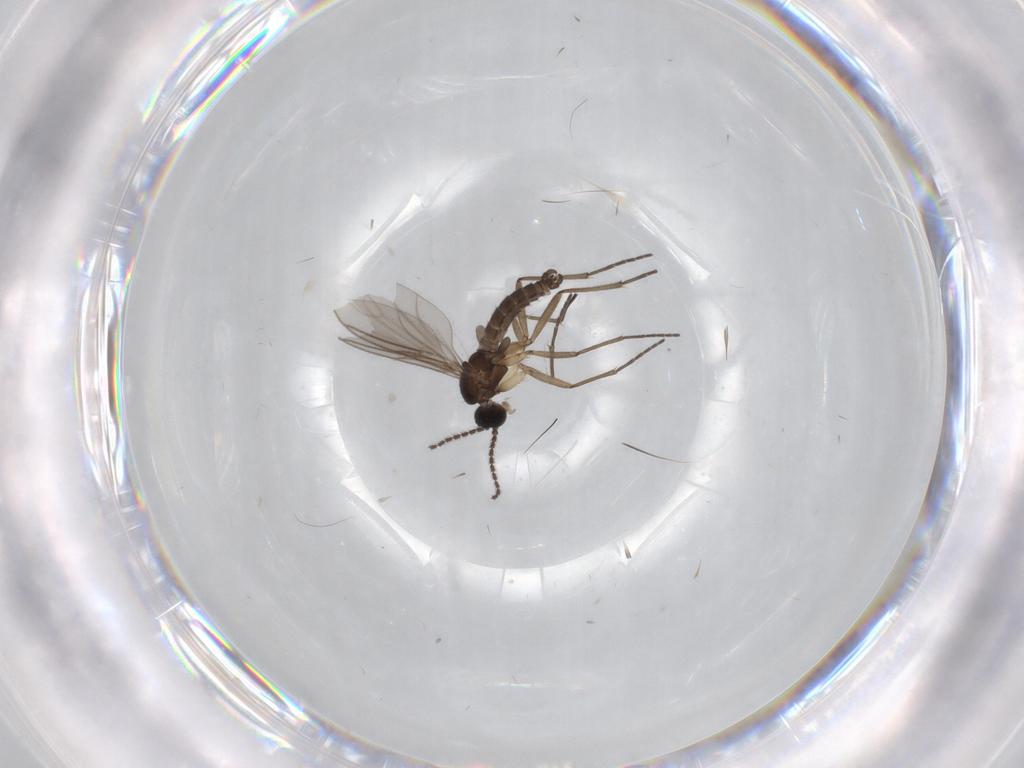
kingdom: Animalia
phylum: Arthropoda
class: Insecta
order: Diptera
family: Sciaridae
